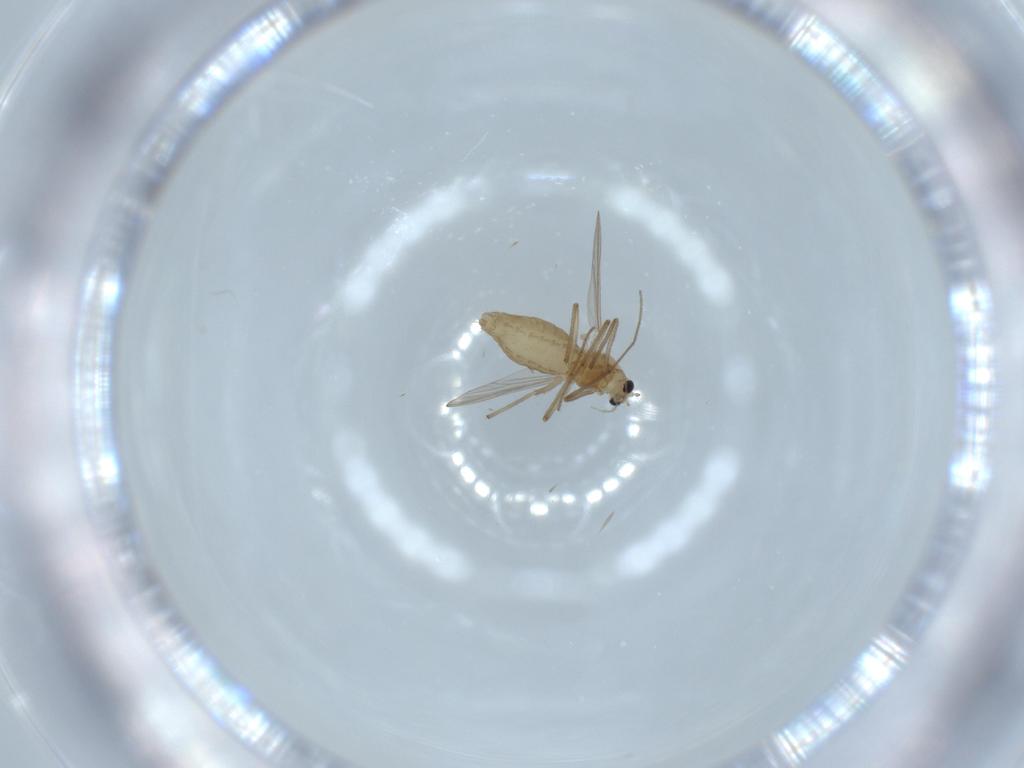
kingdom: Animalia
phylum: Arthropoda
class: Insecta
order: Diptera
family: Chironomidae
